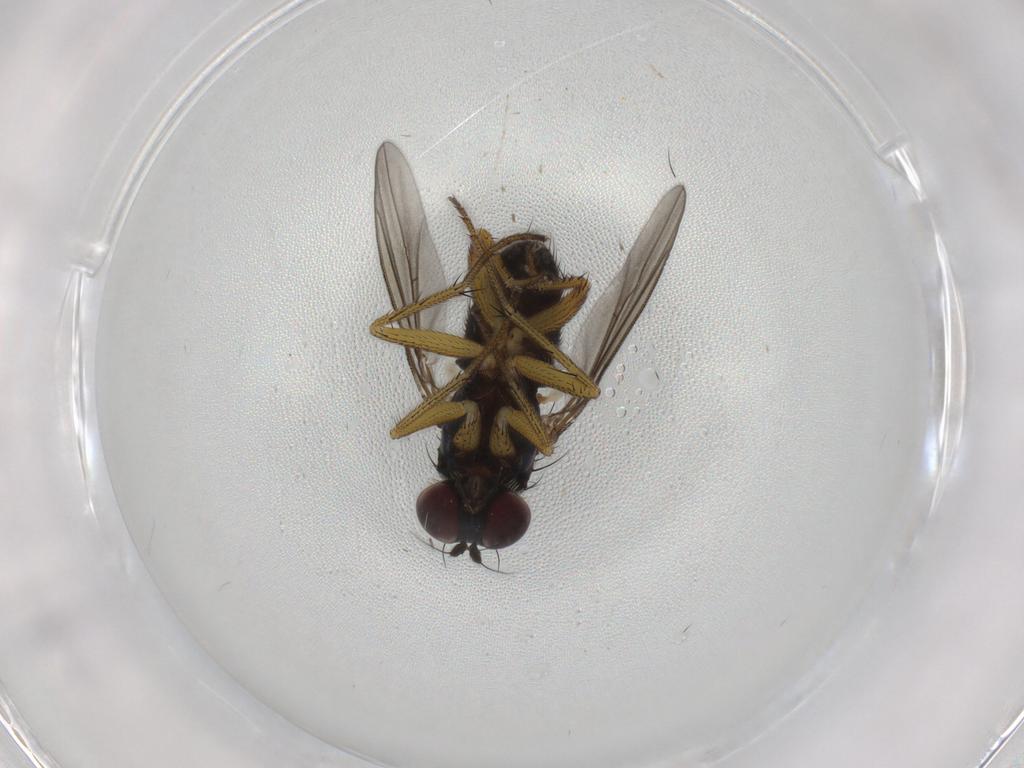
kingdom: Animalia
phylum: Arthropoda
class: Insecta
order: Diptera
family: Dolichopodidae
